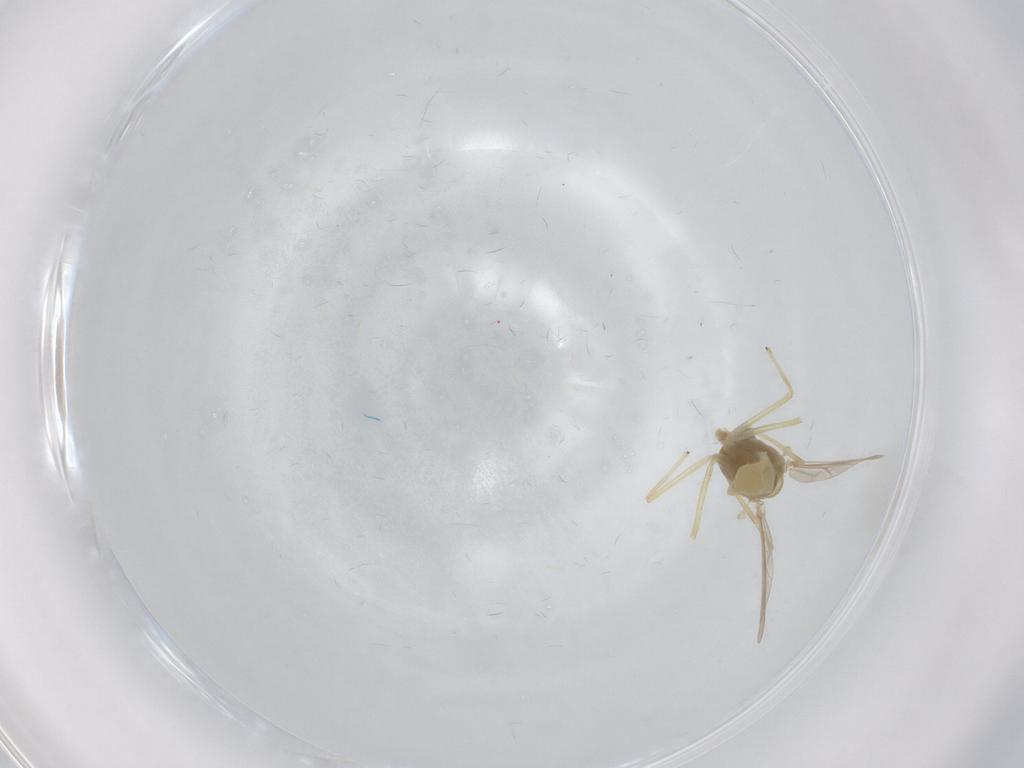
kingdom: Animalia
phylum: Arthropoda
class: Insecta
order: Diptera
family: Chironomidae
